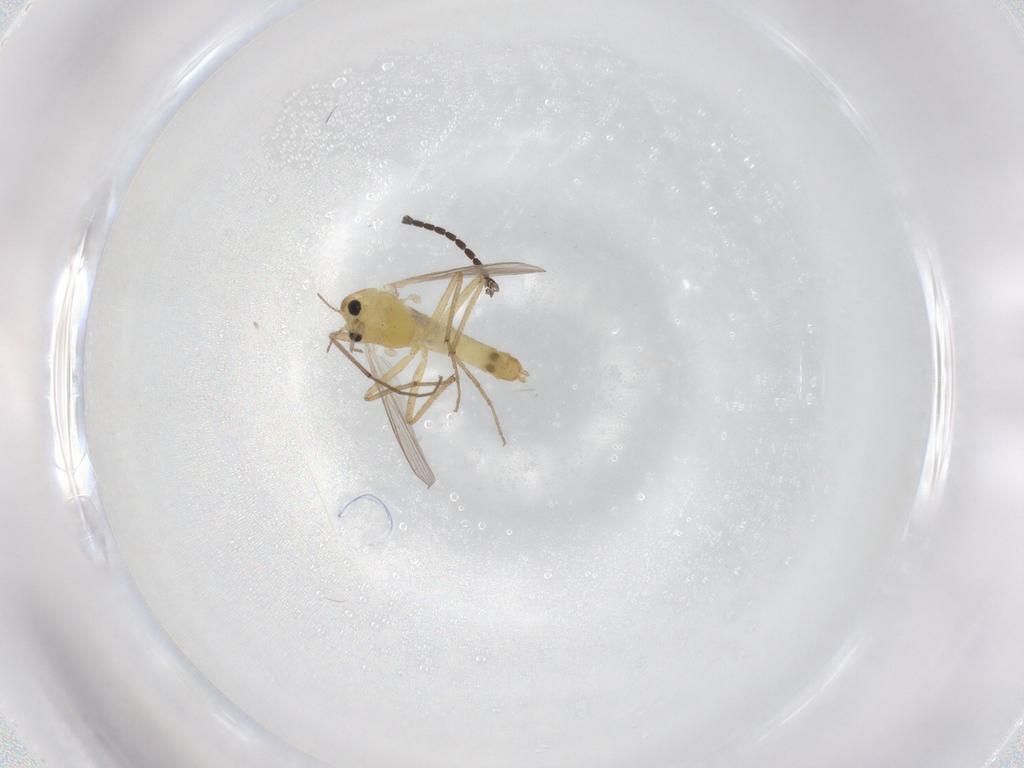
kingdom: Animalia
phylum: Arthropoda
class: Insecta
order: Diptera
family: Chironomidae
